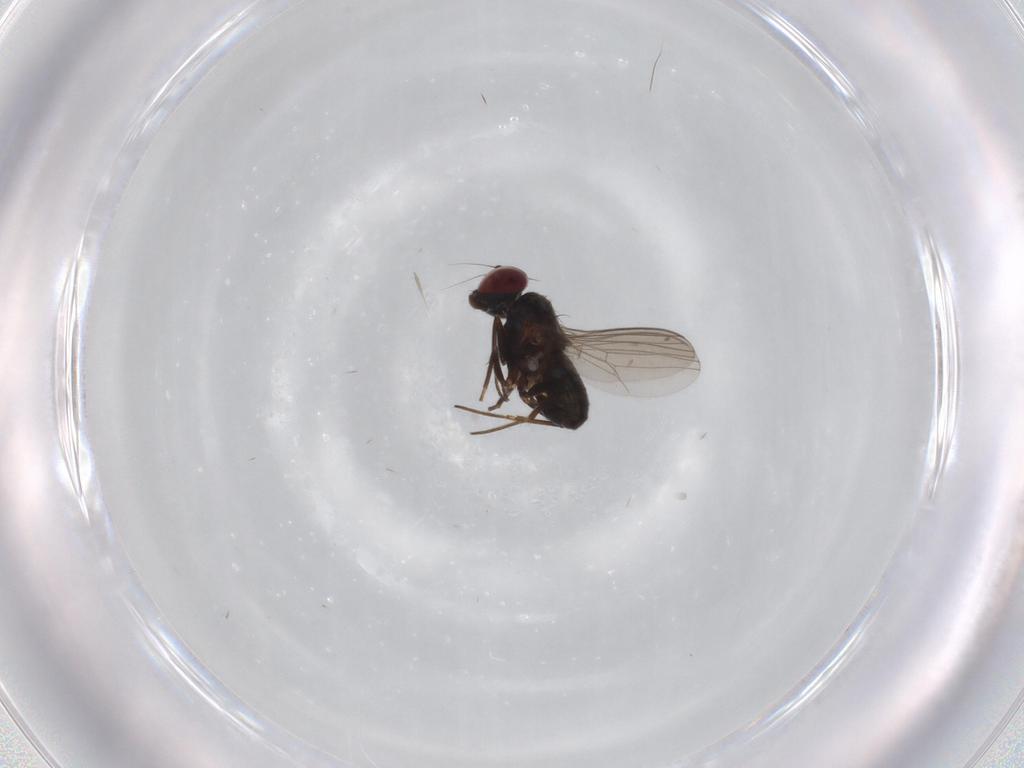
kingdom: Animalia
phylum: Arthropoda
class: Insecta
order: Diptera
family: Dolichopodidae
